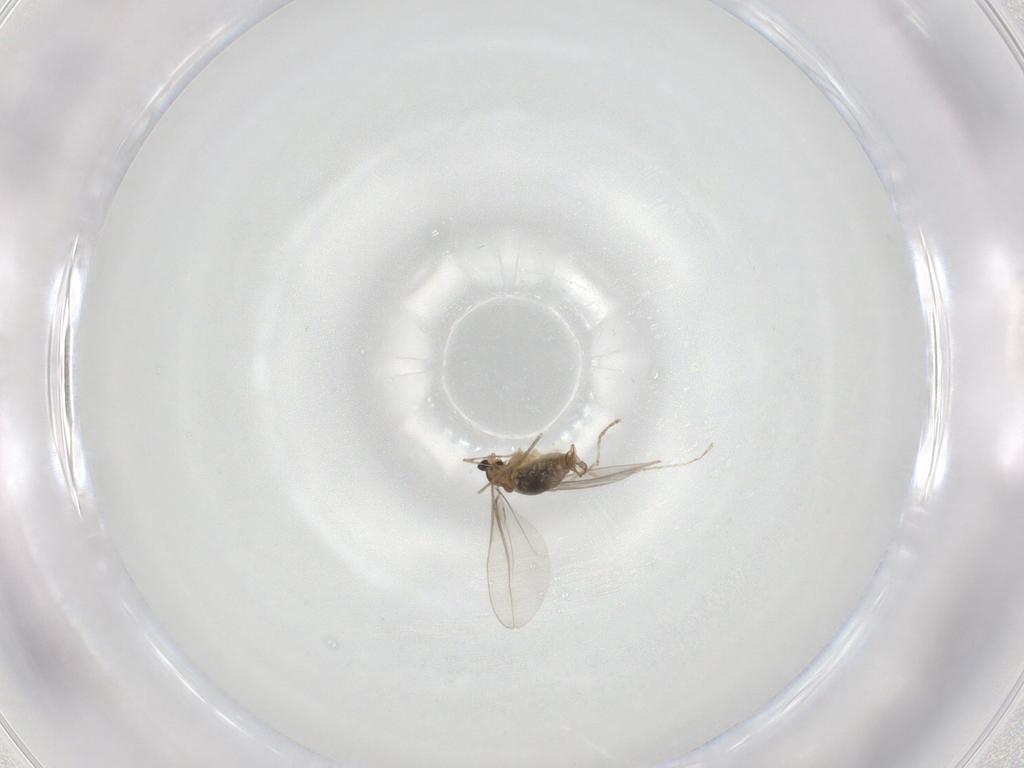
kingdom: Animalia
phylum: Arthropoda
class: Insecta
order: Diptera
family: Cecidomyiidae
